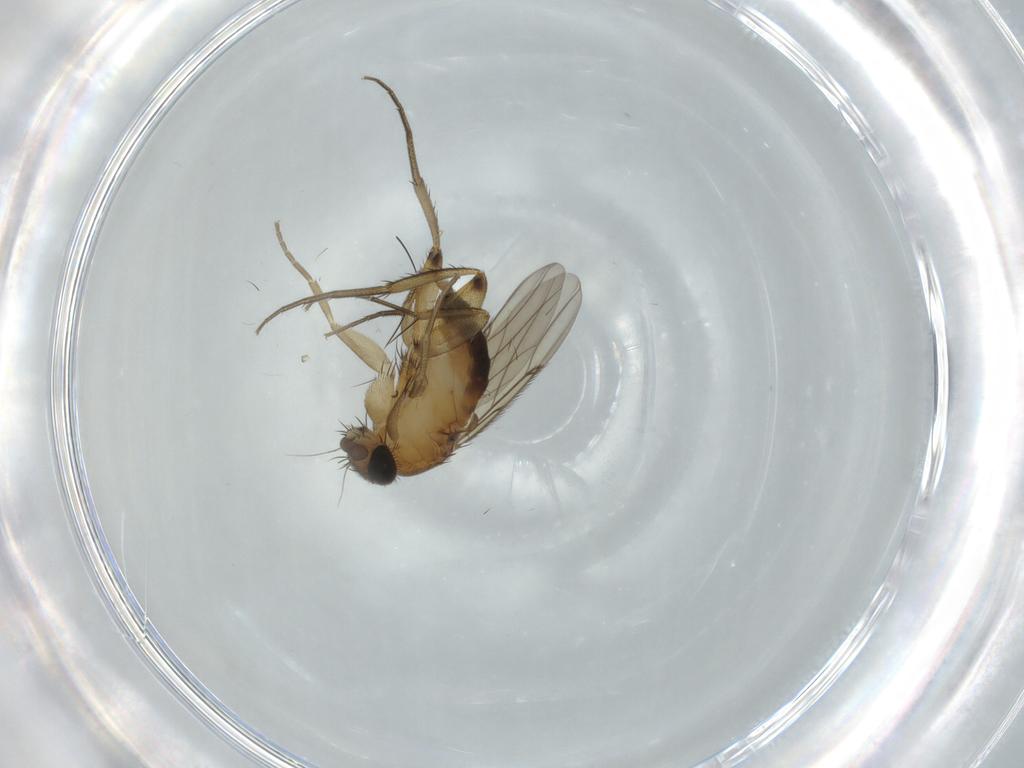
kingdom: Animalia
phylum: Arthropoda
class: Insecta
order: Diptera
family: Phoridae
